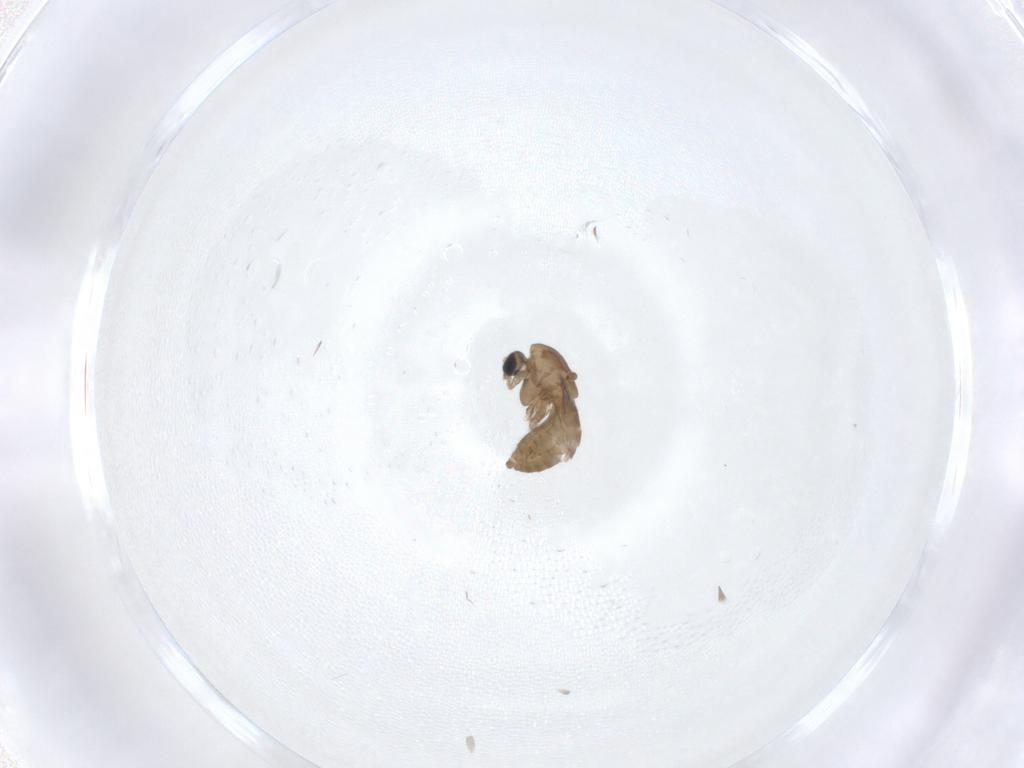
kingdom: Animalia
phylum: Arthropoda
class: Insecta
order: Diptera
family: Chironomidae
